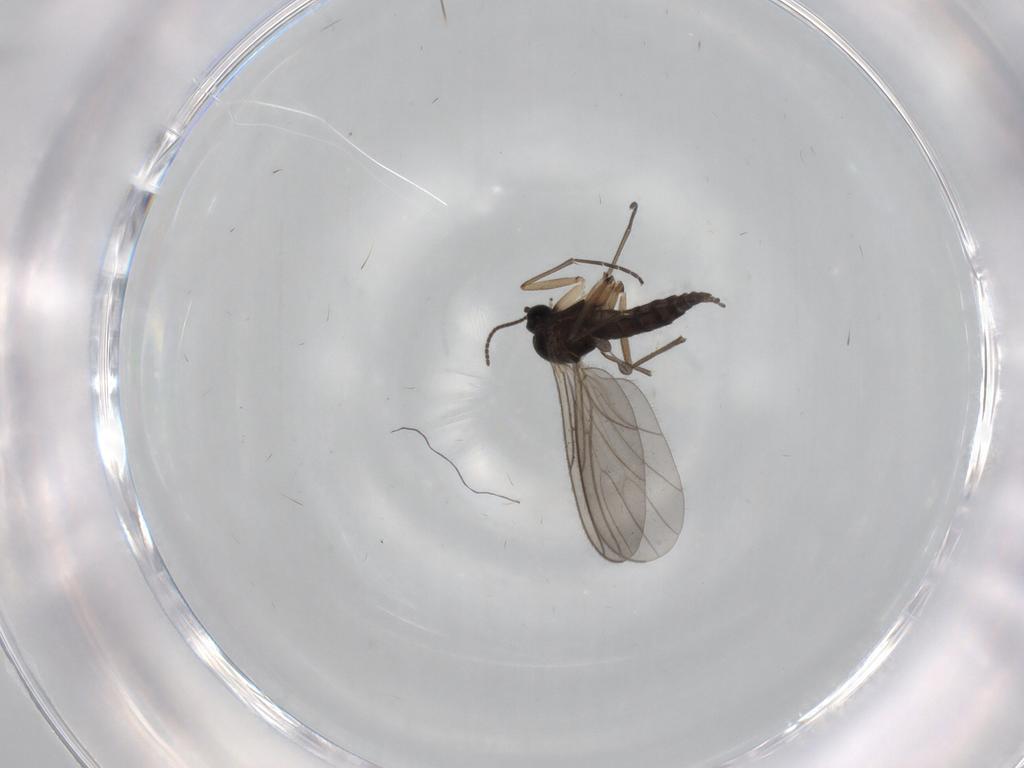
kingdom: Animalia
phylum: Arthropoda
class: Insecta
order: Diptera
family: Sciaridae
